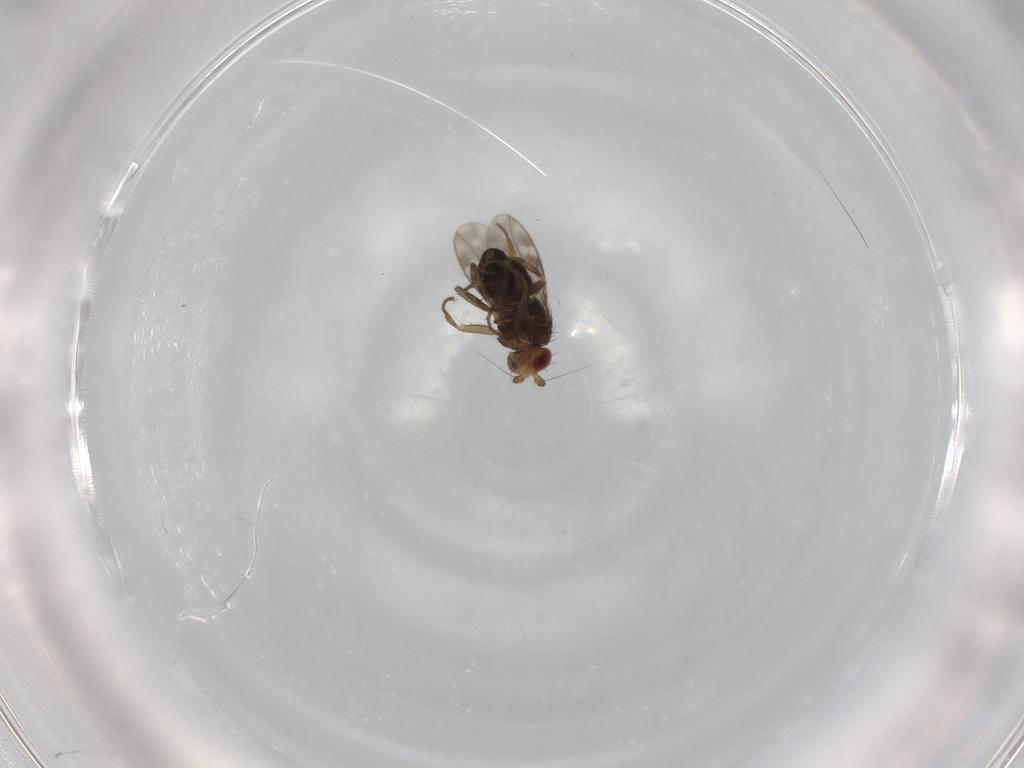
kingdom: Animalia
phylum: Arthropoda
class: Insecta
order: Diptera
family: Sphaeroceridae
